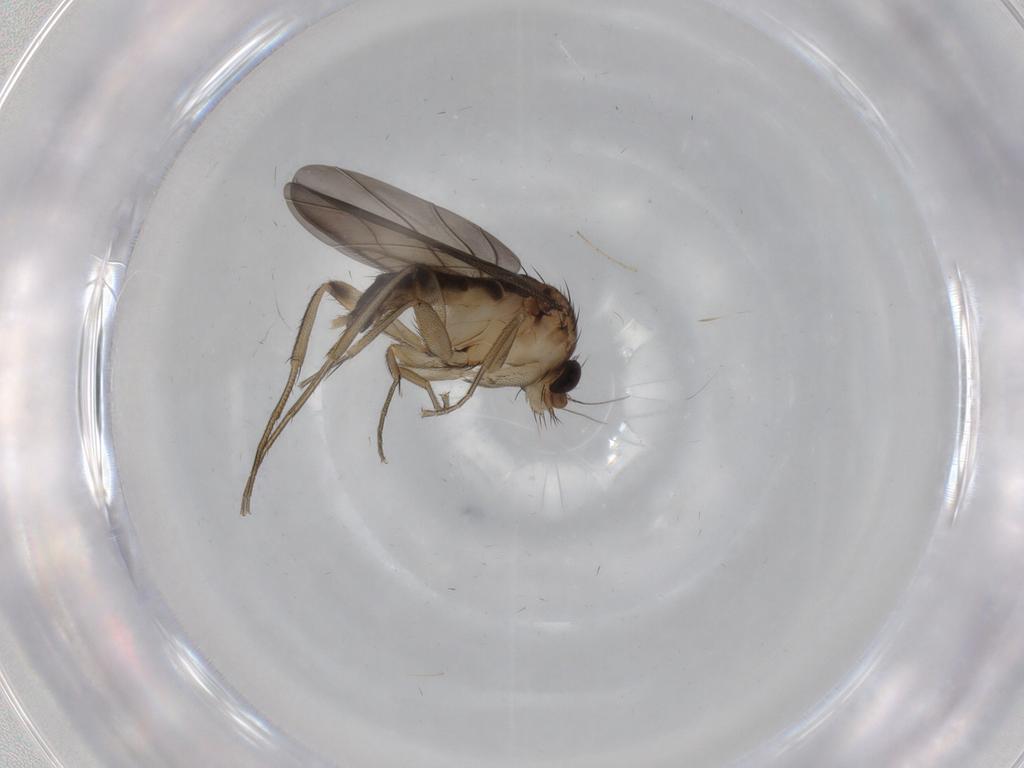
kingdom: Animalia
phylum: Arthropoda
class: Insecta
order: Diptera
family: Phoridae
